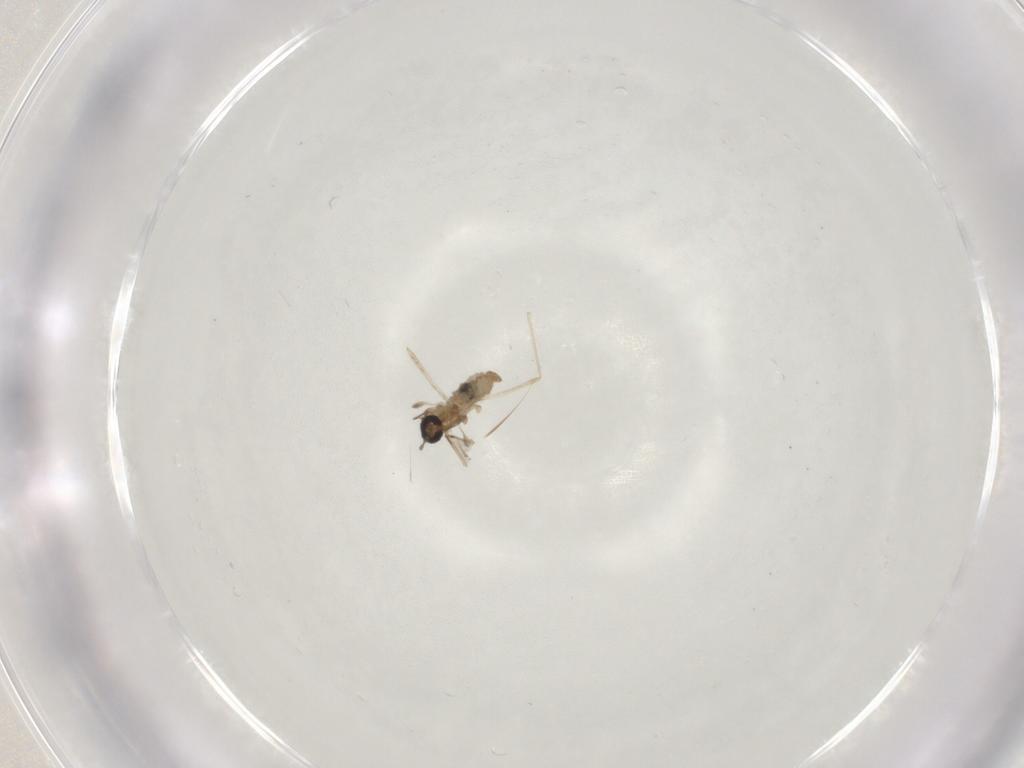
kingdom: Animalia
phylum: Arthropoda
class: Insecta
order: Diptera
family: Cecidomyiidae
